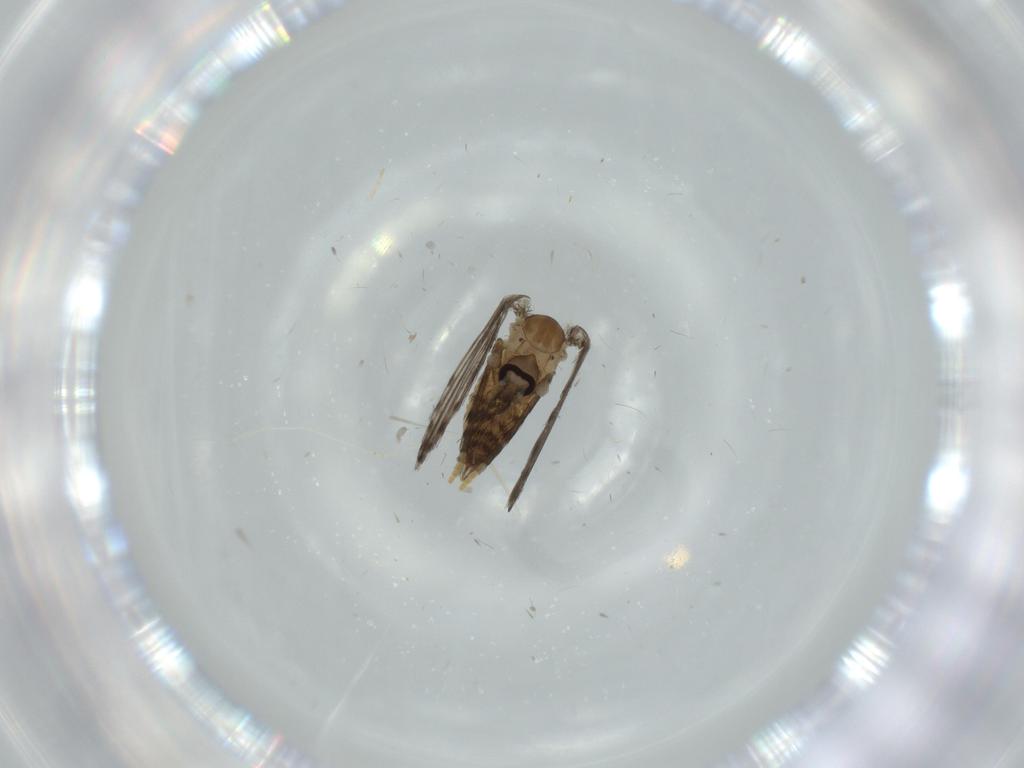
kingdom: Animalia
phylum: Arthropoda
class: Insecta
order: Diptera
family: Psychodidae
